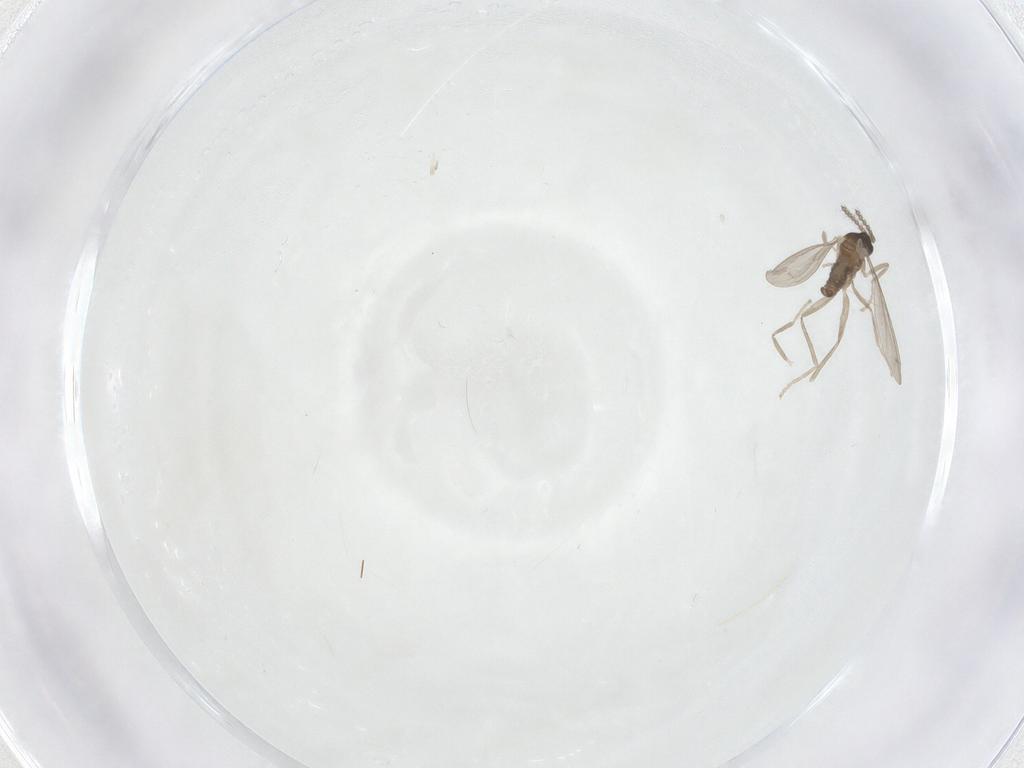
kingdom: Animalia
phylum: Arthropoda
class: Insecta
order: Diptera
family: Cecidomyiidae
